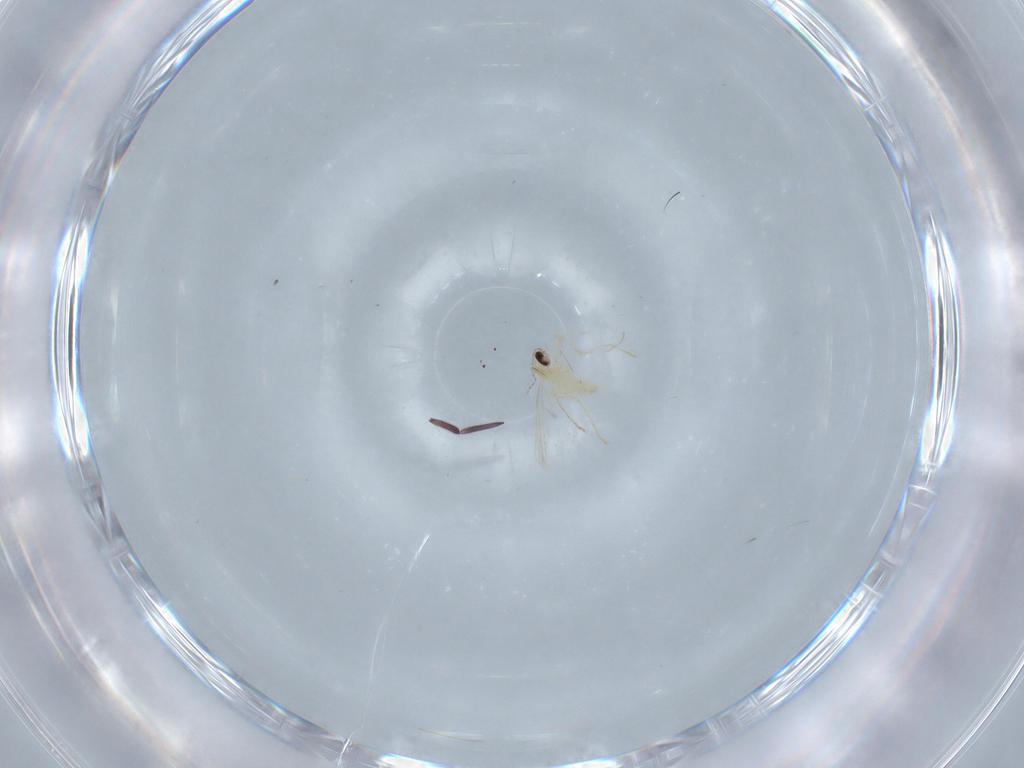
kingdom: Animalia
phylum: Arthropoda
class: Insecta
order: Diptera
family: Cecidomyiidae
